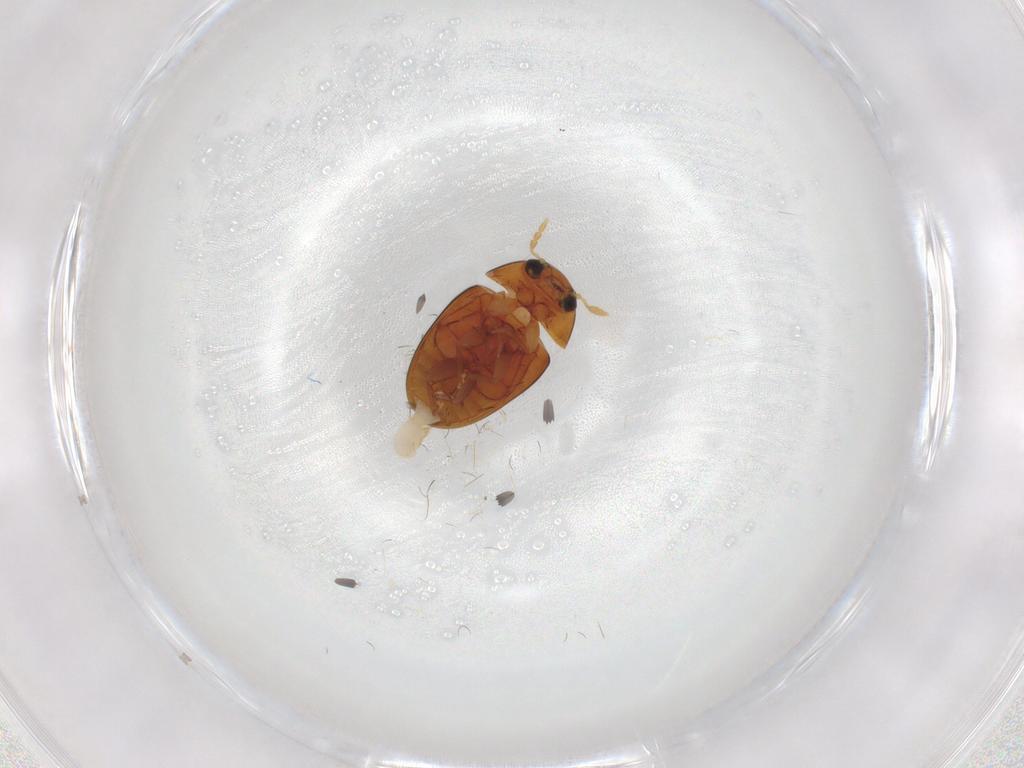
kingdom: Animalia
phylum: Arthropoda
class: Insecta
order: Coleoptera
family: Phalacridae
